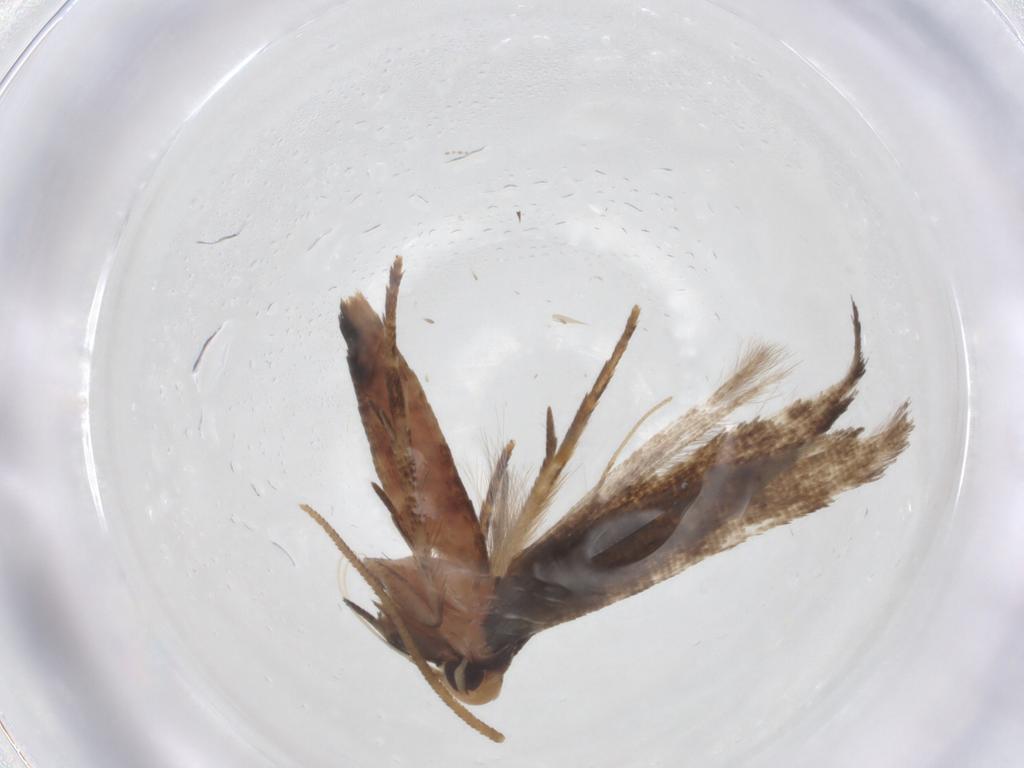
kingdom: Animalia
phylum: Arthropoda
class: Insecta
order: Lepidoptera
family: Cosmopterigidae
